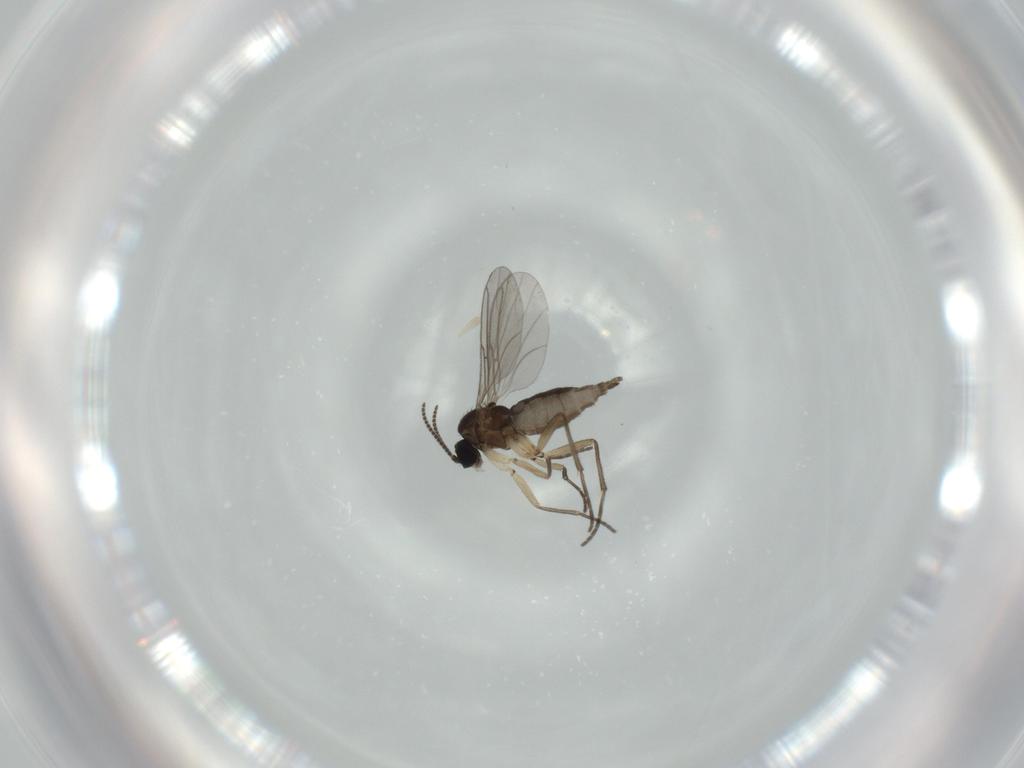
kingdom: Animalia
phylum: Arthropoda
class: Insecta
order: Diptera
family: Sciaridae
